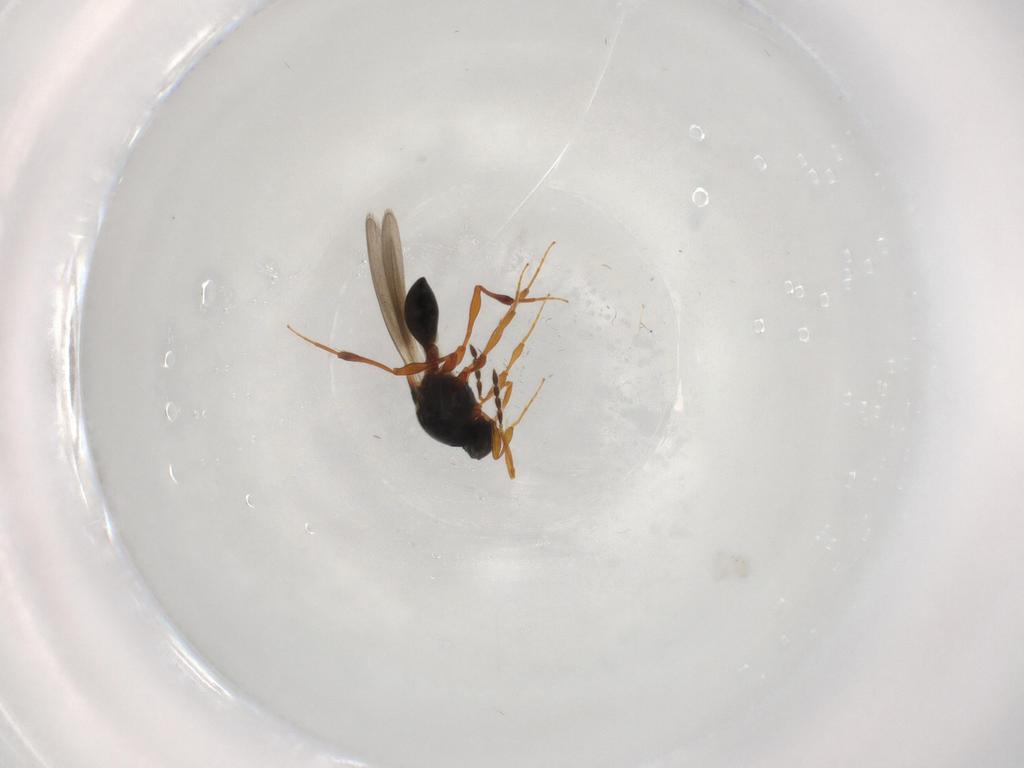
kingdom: Animalia
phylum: Arthropoda
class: Insecta
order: Hymenoptera
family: Platygastridae
